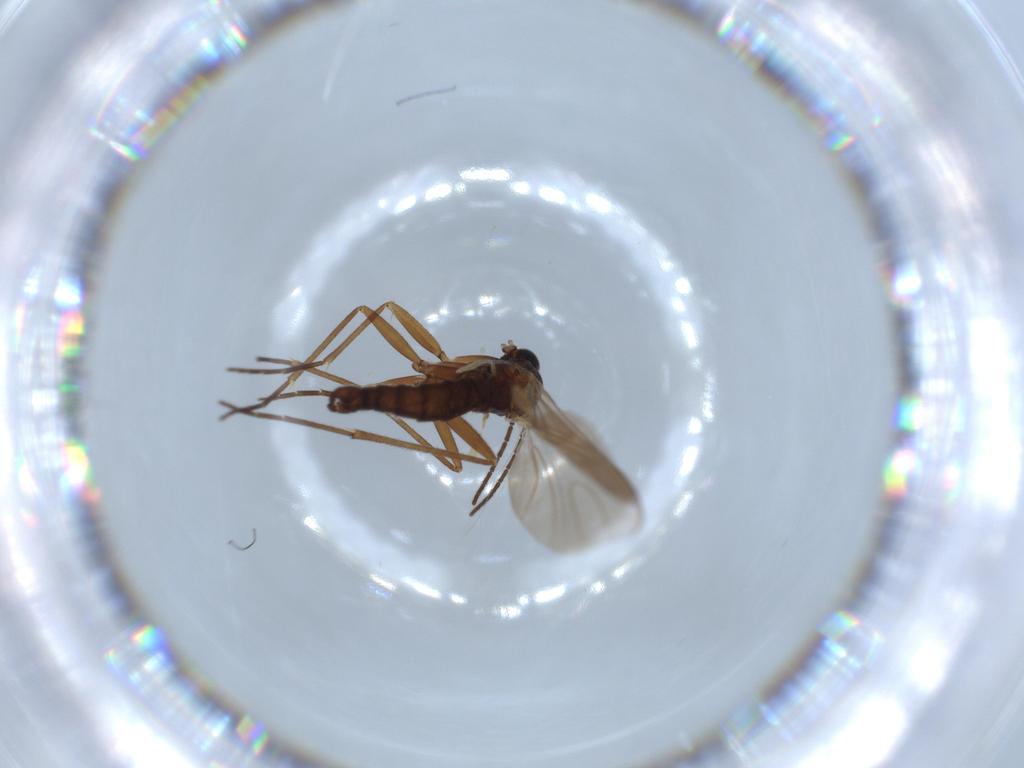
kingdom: Animalia
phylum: Arthropoda
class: Insecta
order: Diptera
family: Sciaridae
